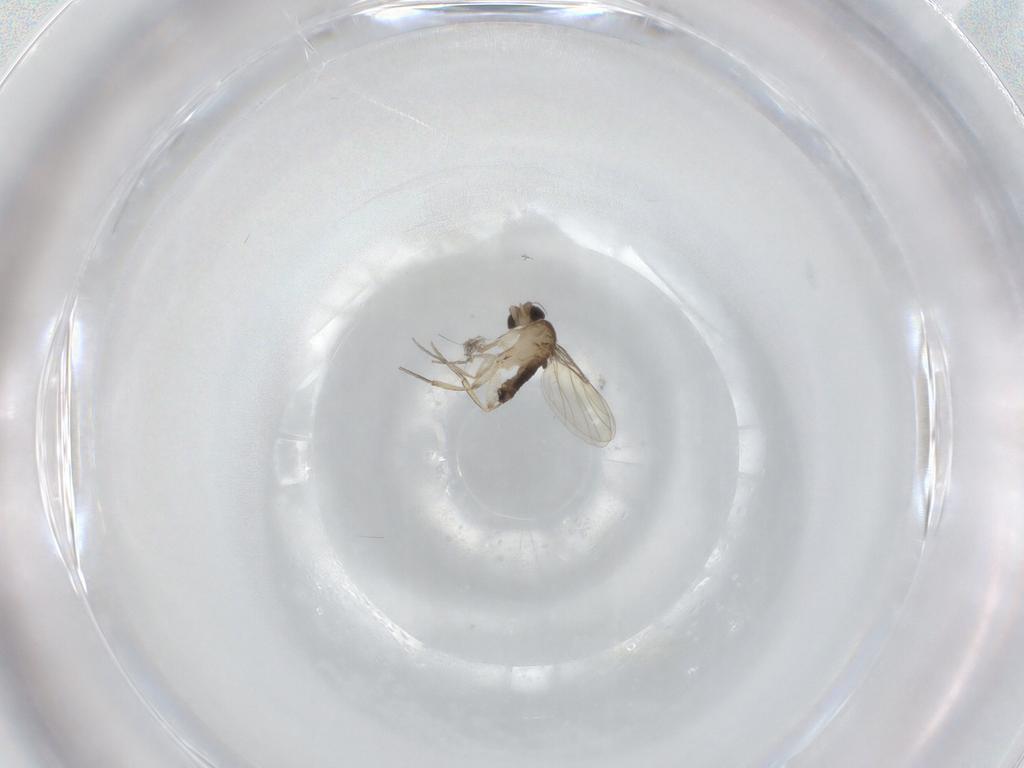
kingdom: Animalia
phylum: Arthropoda
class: Insecta
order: Diptera
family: Phoridae
